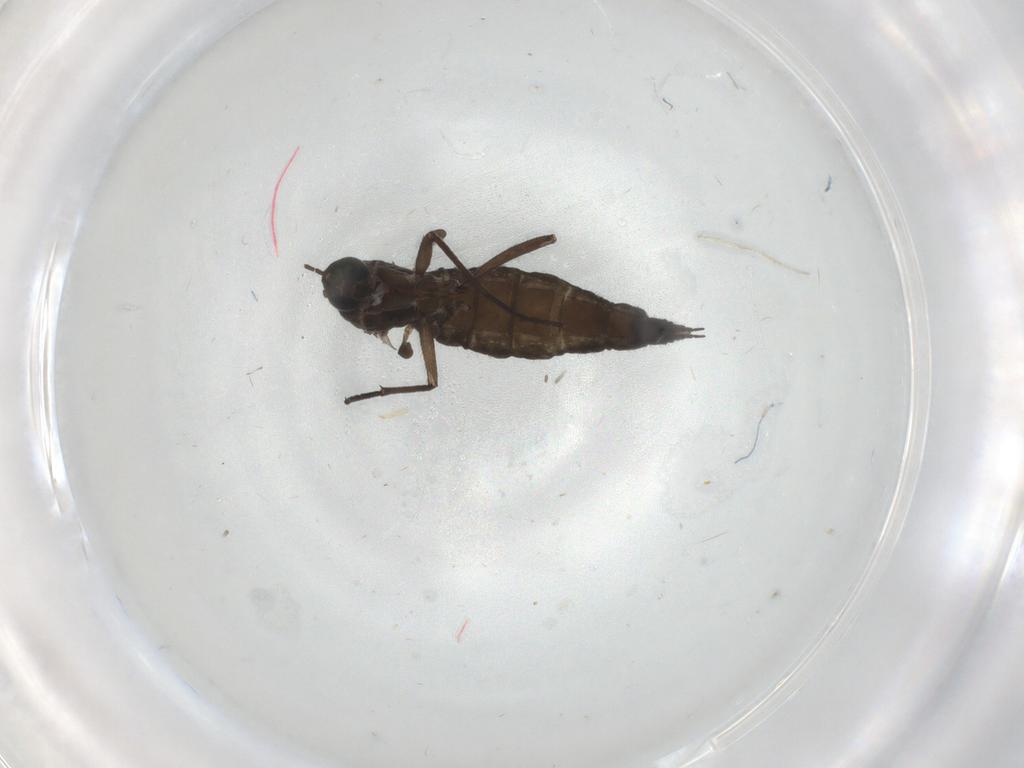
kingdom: Animalia
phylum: Arthropoda
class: Insecta
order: Diptera
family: Sciaridae
